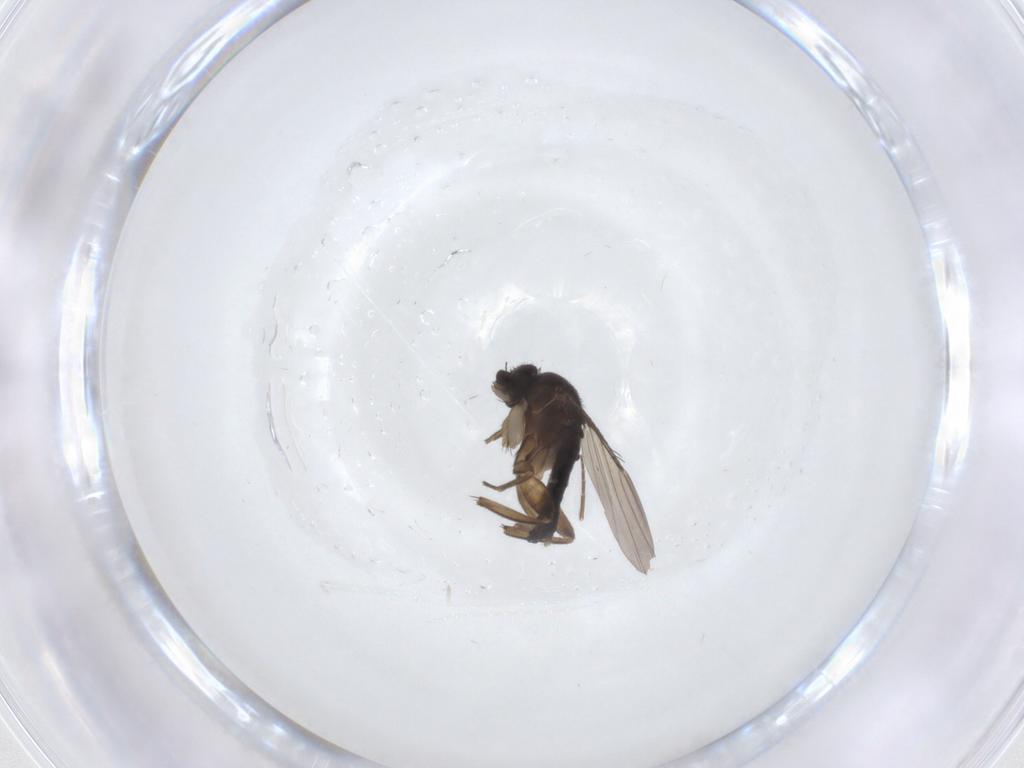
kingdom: Animalia
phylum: Arthropoda
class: Insecta
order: Diptera
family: Phoridae
